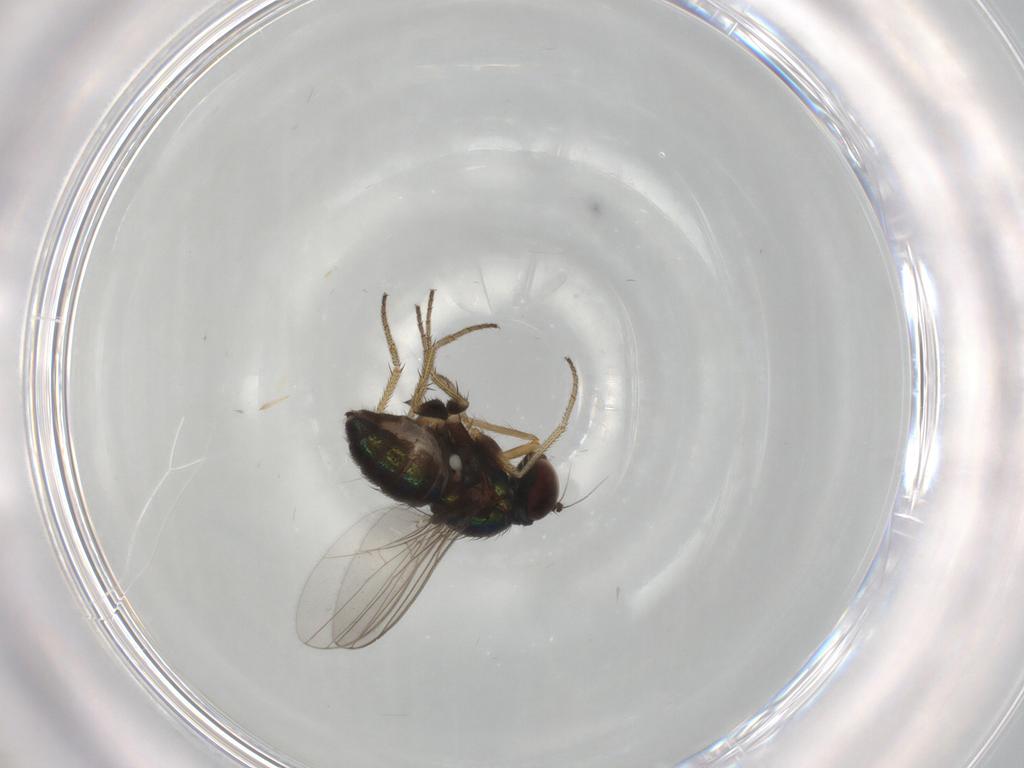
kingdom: Animalia
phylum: Arthropoda
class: Insecta
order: Diptera
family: Dolichopodidae
